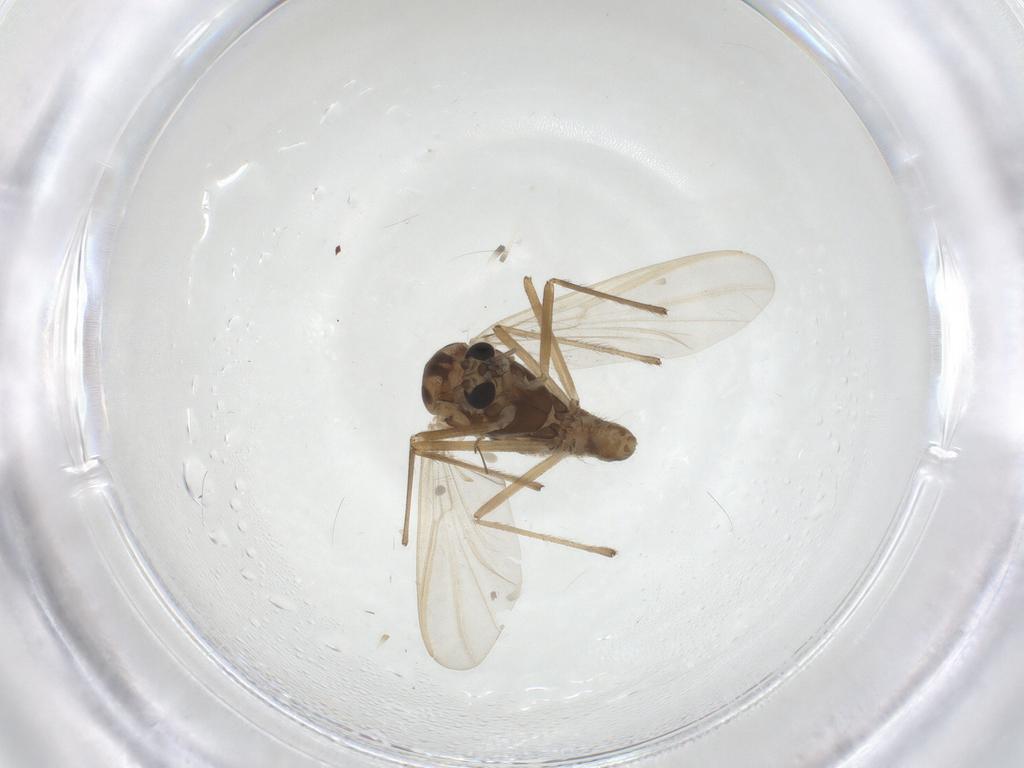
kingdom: Animalia
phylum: Arthropoda
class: Insecta
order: Diptera
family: Chironomidae
